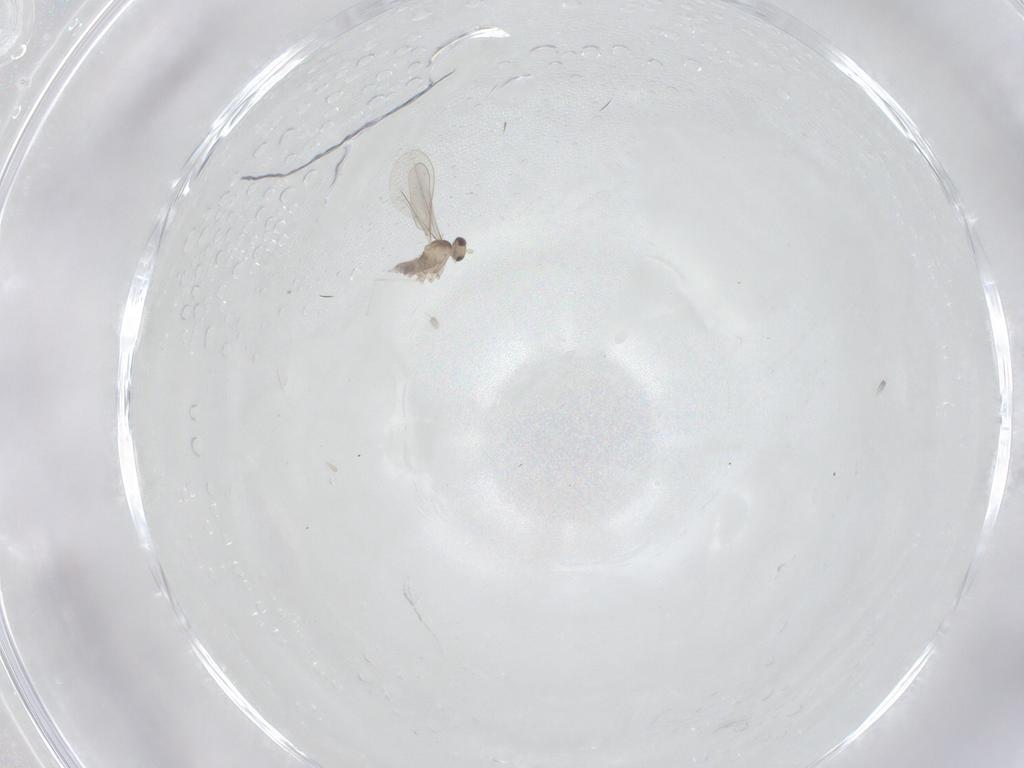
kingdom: Animalia
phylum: Arthropoda
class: Insecta
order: Diptera
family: Cecidomyiidae
